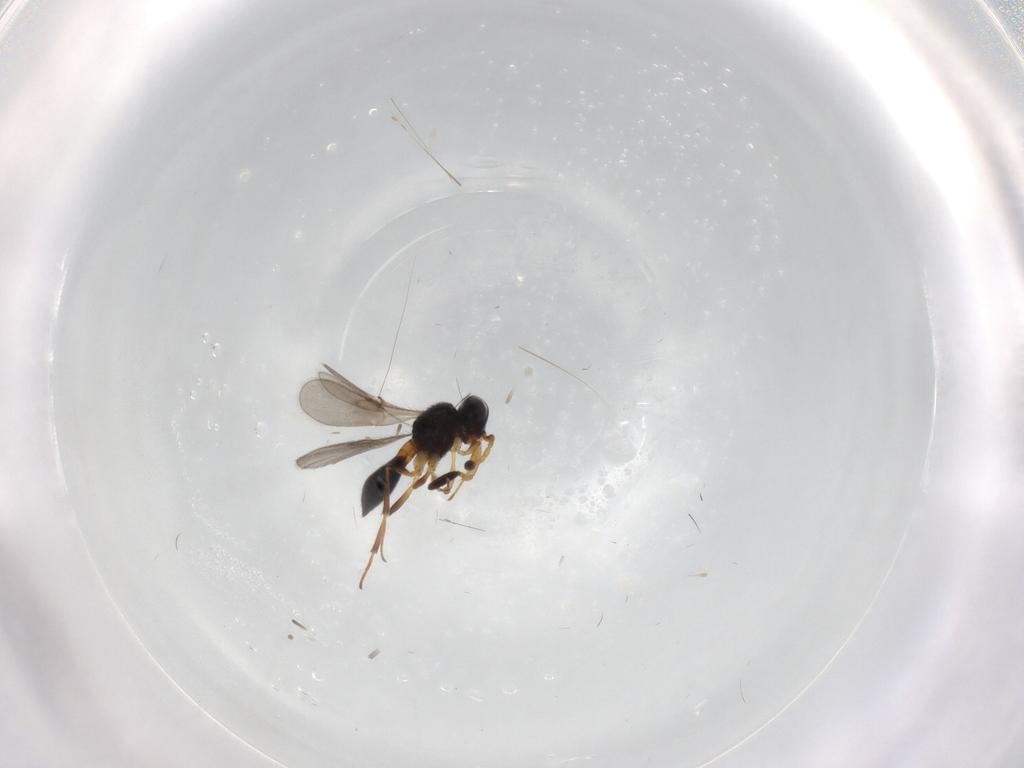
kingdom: Animalia
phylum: Arthropoda
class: Insecta
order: Hymenoptera
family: Scelionidae
